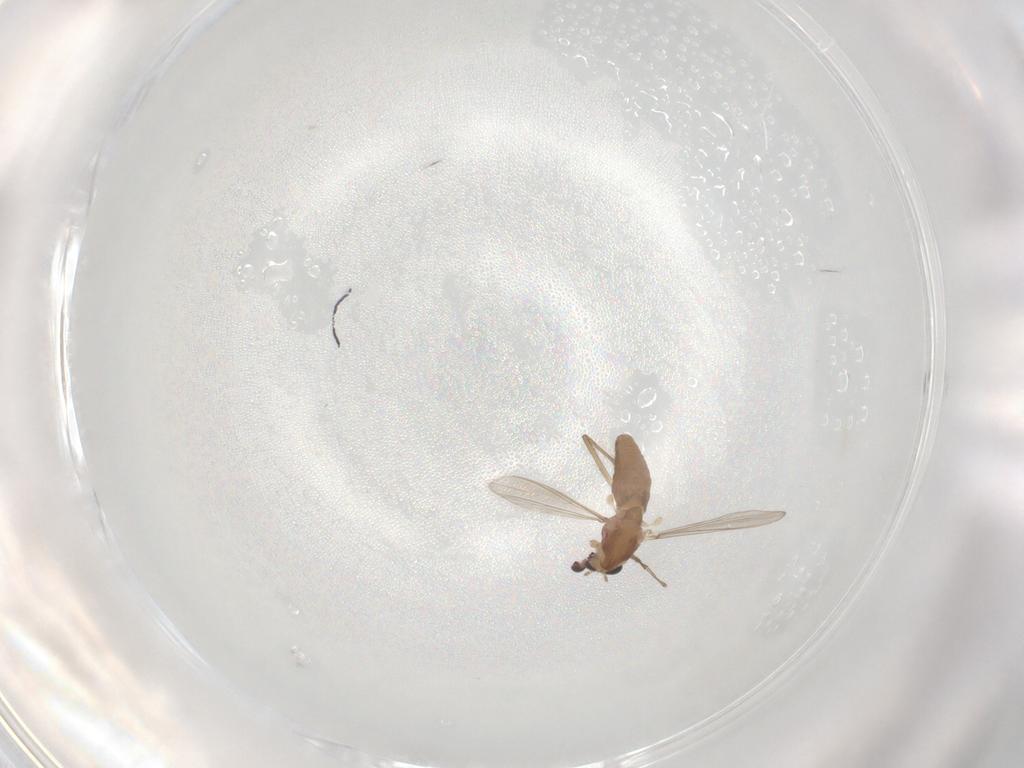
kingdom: Animalia
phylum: Arthropoda
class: Insecta
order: Diptera
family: Chironomidae
